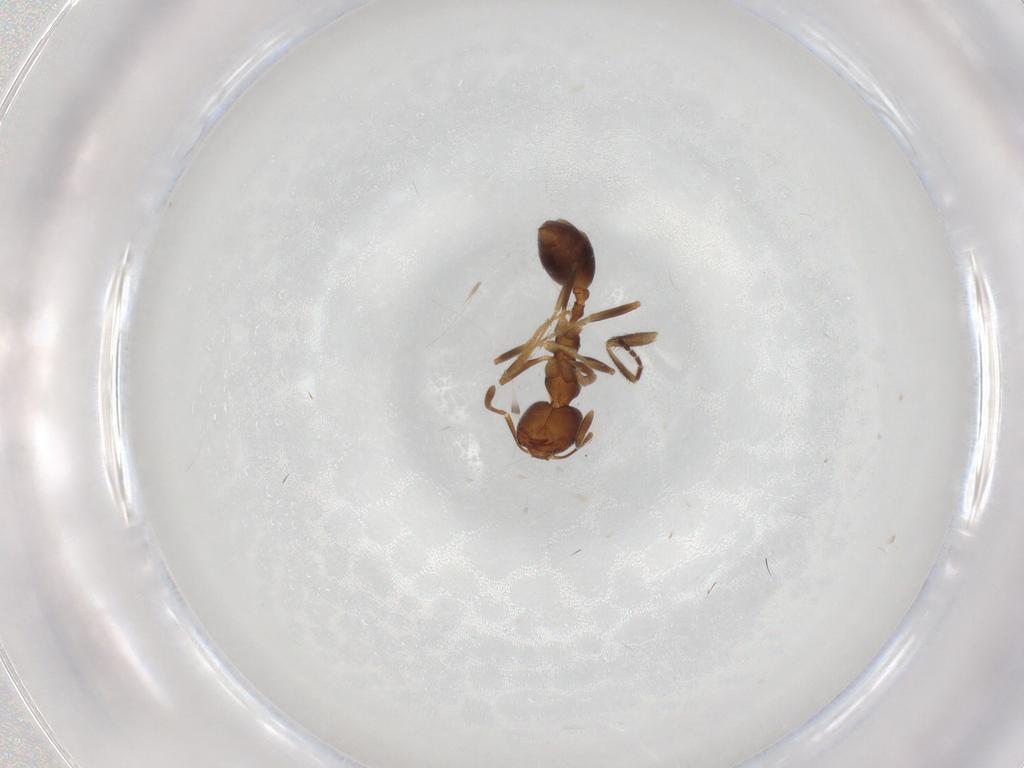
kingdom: Animalia
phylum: Arthropoda
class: Insecta
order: Hymenoptera
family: Formicidae
